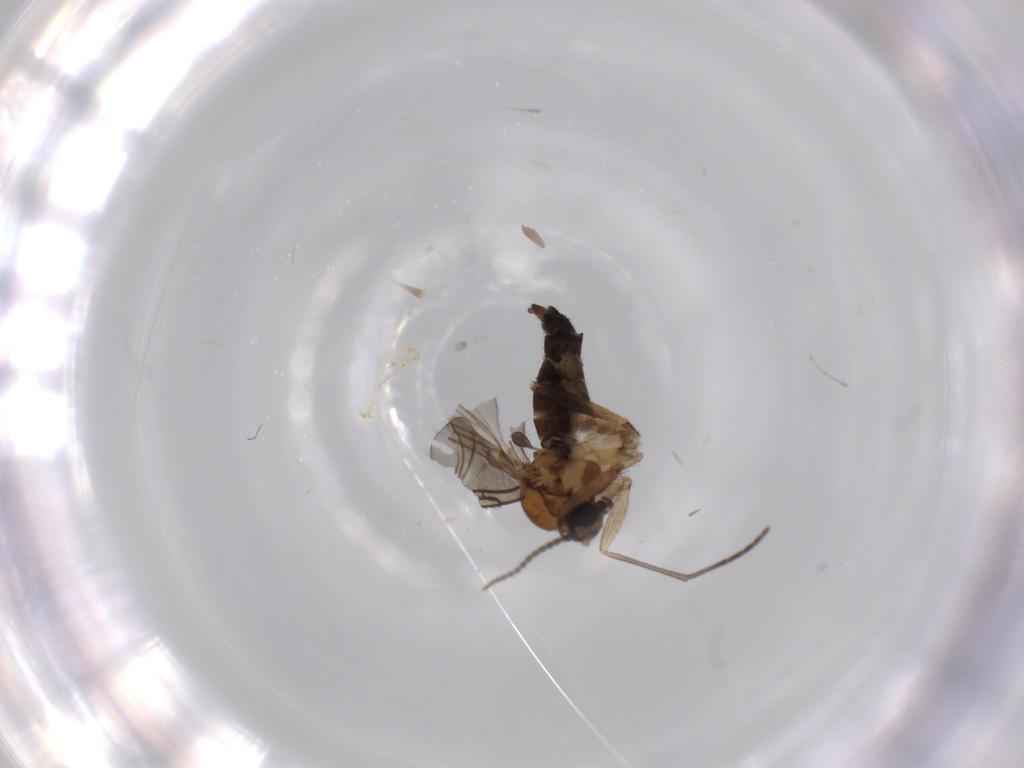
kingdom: Animalia
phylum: Arthropoda
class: Insecta
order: Diptera
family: Sciaridae
